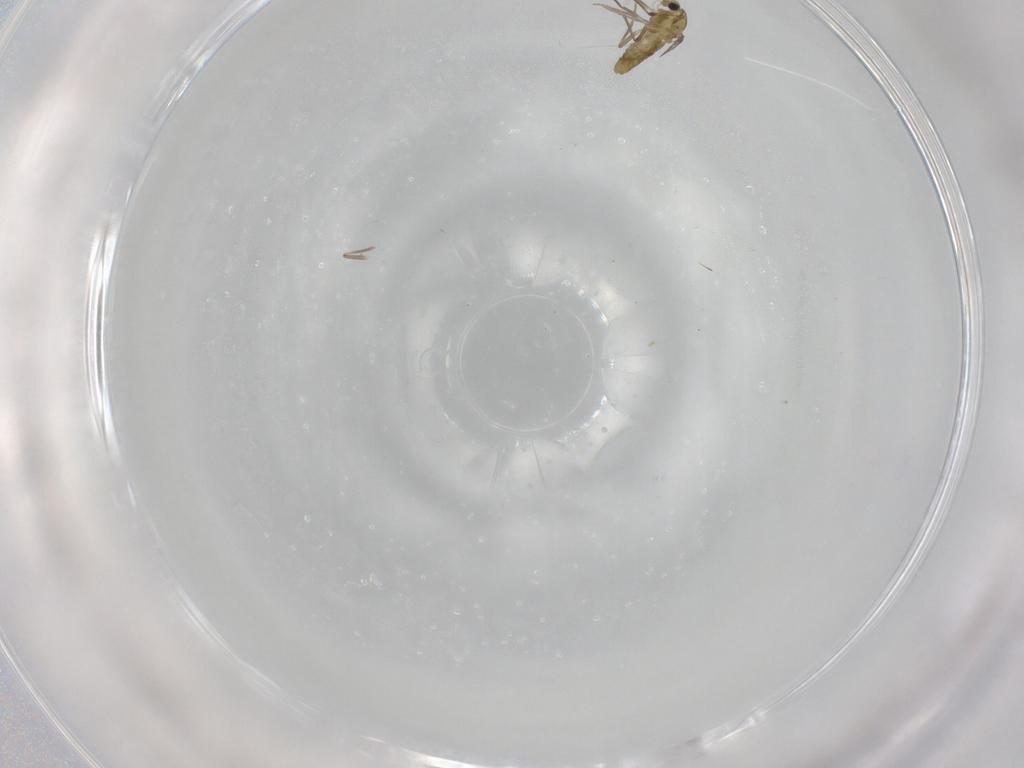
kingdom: Animalia
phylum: Arthropoda
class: Insecta
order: Diptera
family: Chironomidae
